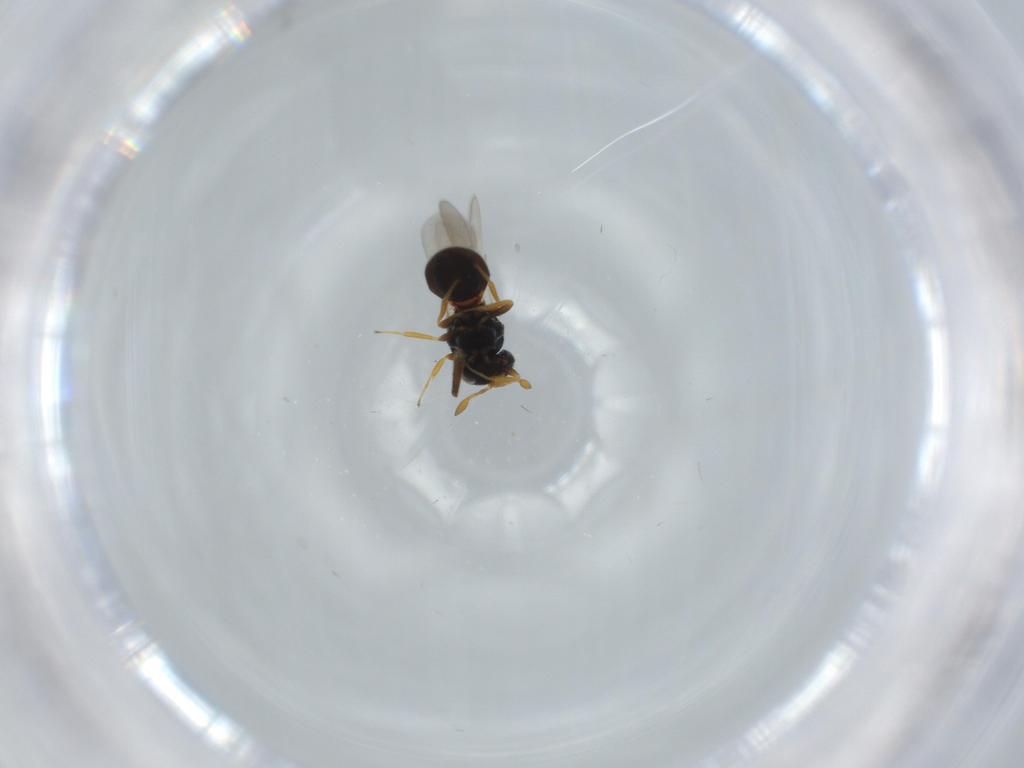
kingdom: Animalia
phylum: Arthropoda
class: Insecta
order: Hymenoptera
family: Scelionidae
